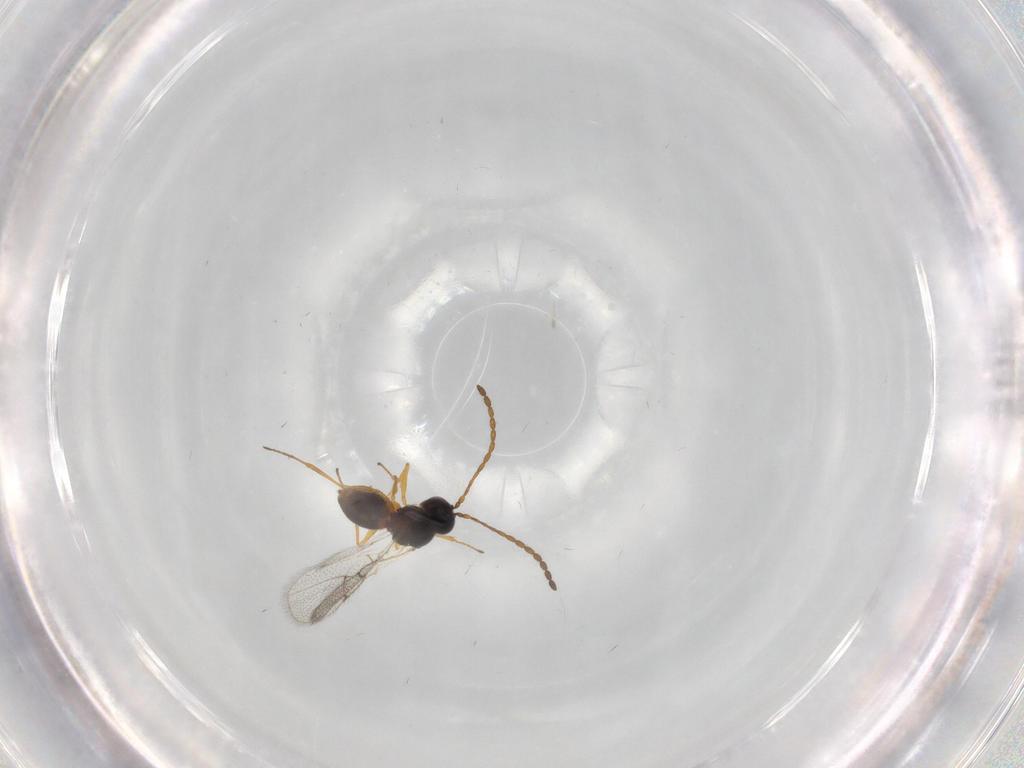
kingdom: Animalia
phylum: Arthropoda
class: Insecta
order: Hymenoptera
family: Figitidae
